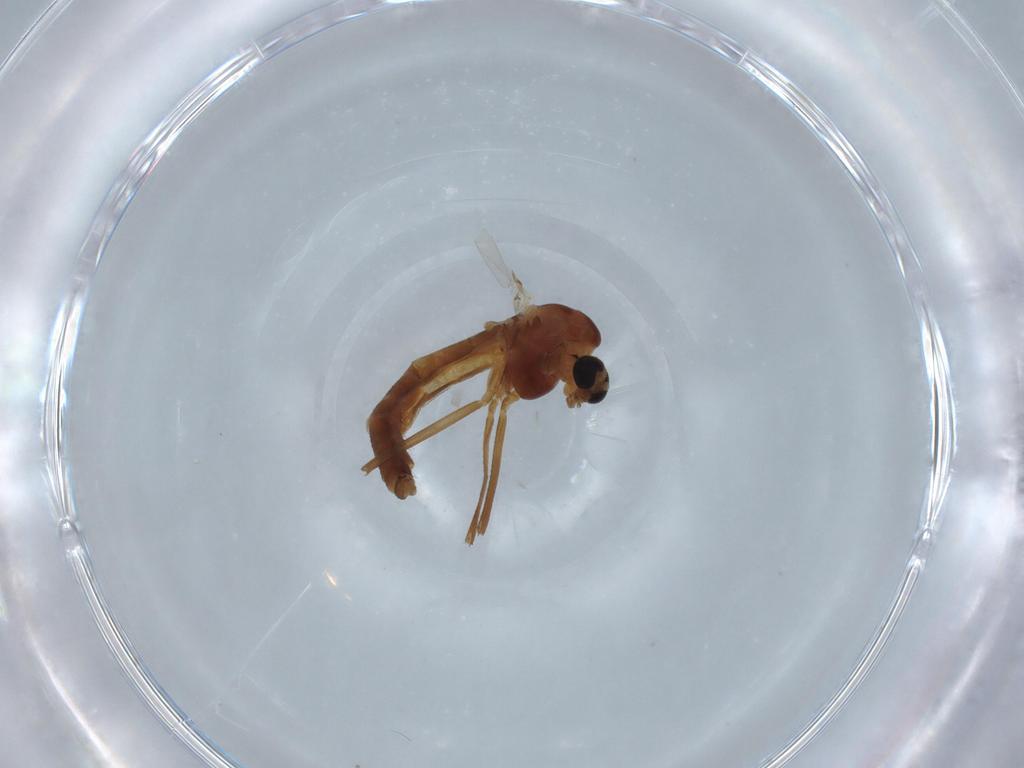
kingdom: Animalia
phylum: Arthropoda
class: Insecta
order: Diptera
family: Chironomidae
